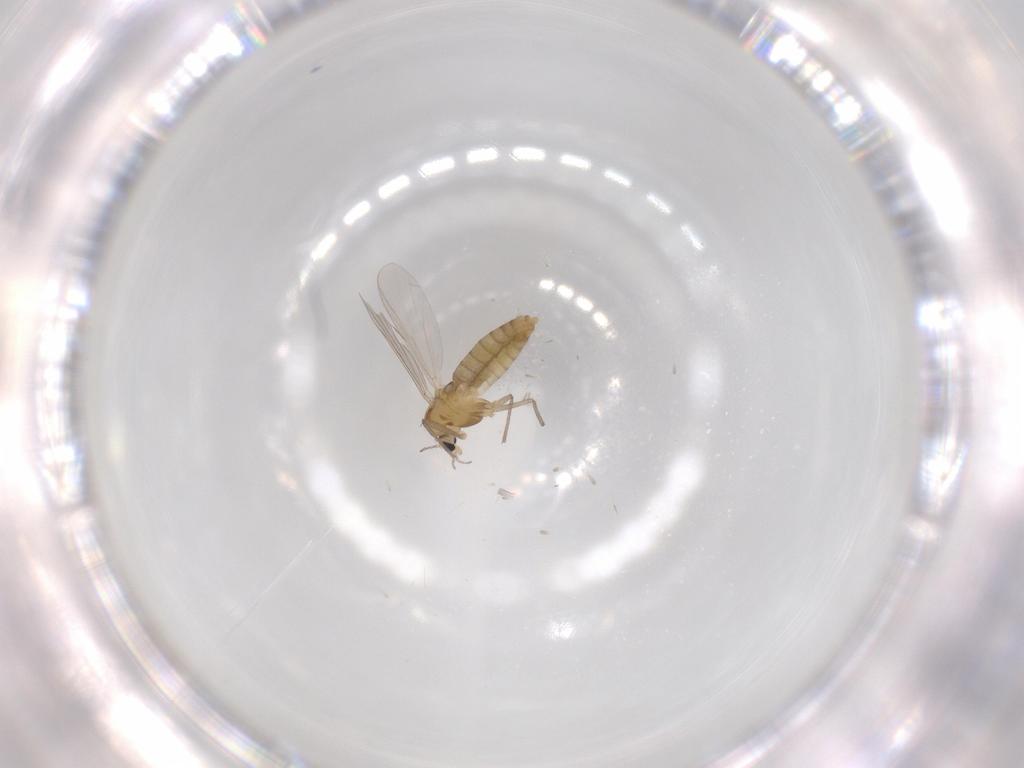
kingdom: Animalia
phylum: Arthropoda
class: Insecta
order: Diptera
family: Chironomidae
